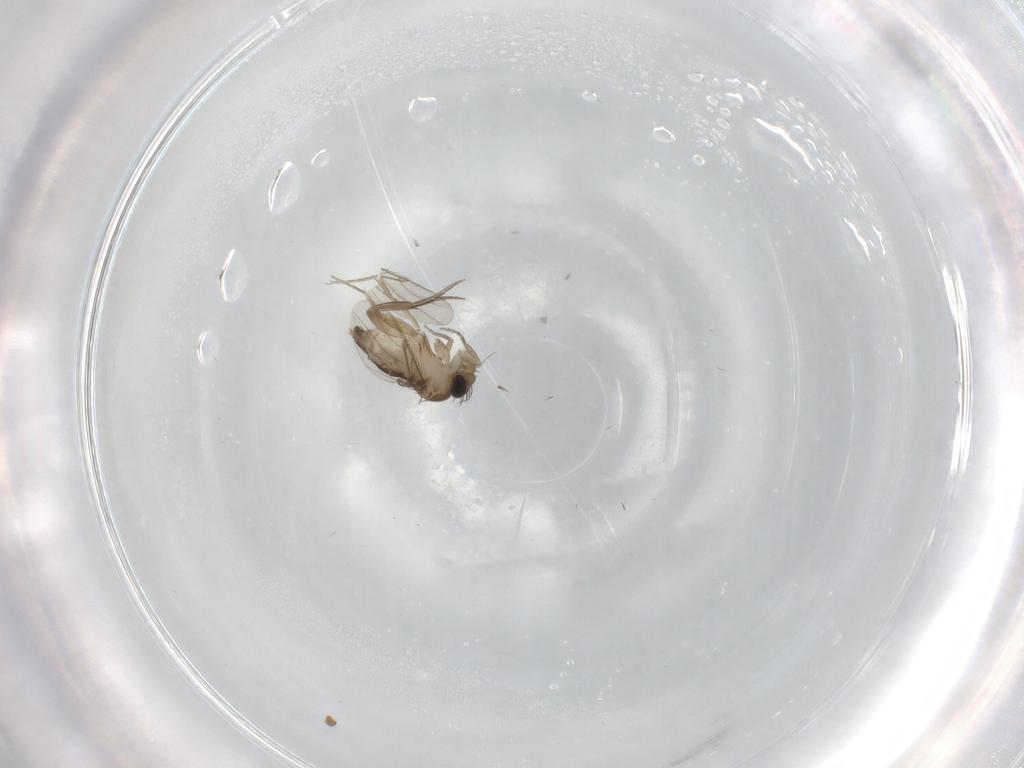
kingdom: Animalia
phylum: Arthropoda
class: Insecta
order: Diptera
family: Phoridae
